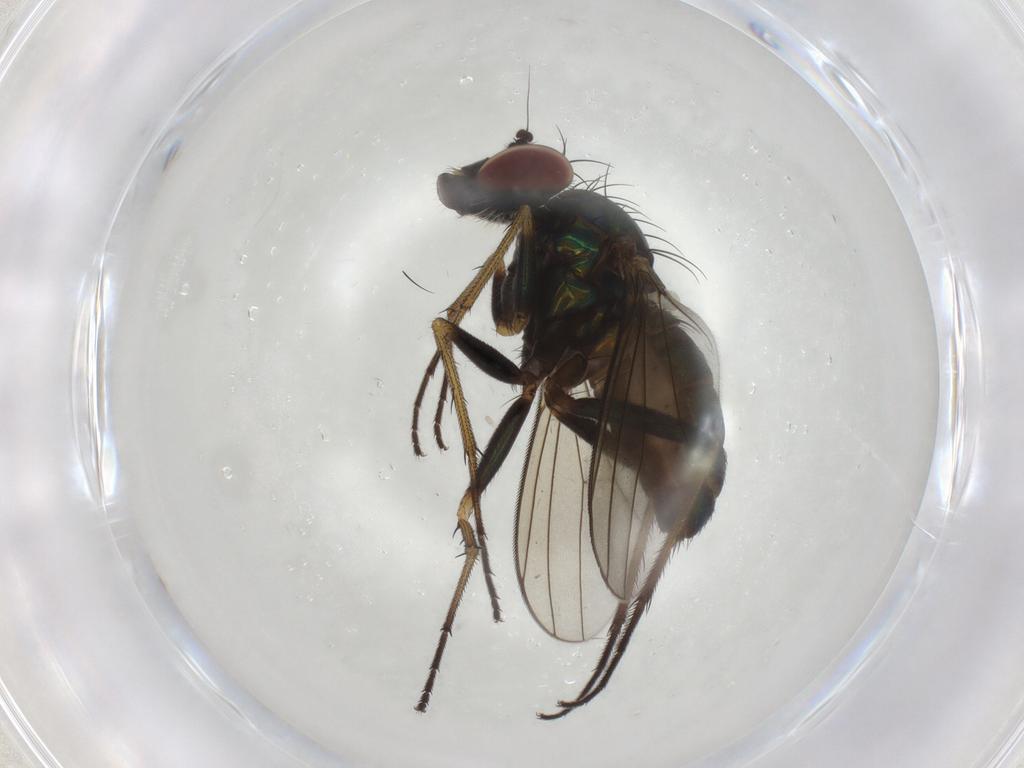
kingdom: Animalia
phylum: Arthropoda
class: Insecta
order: Diptera
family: Dolichopodidae
